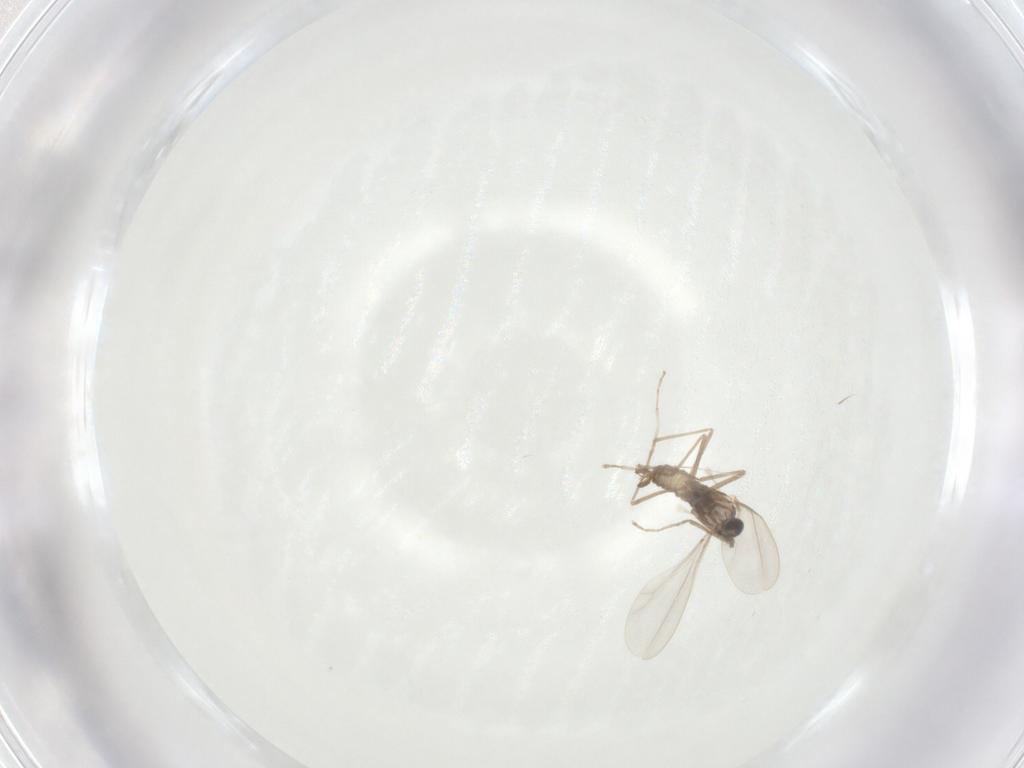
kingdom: Animalia
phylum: Arthropoda
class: Insecta
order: Diptera
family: Cecidomyiidae
